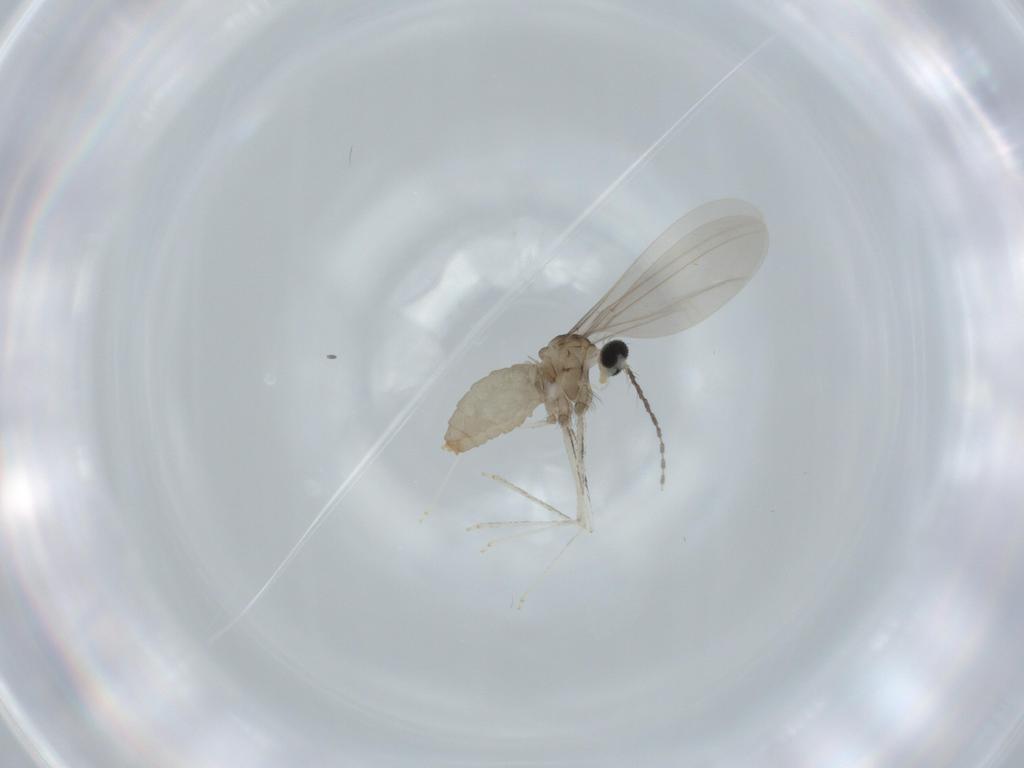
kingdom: Animalia
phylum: Arthropoda
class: Insecta
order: Diptera
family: Cecidomyiidae
